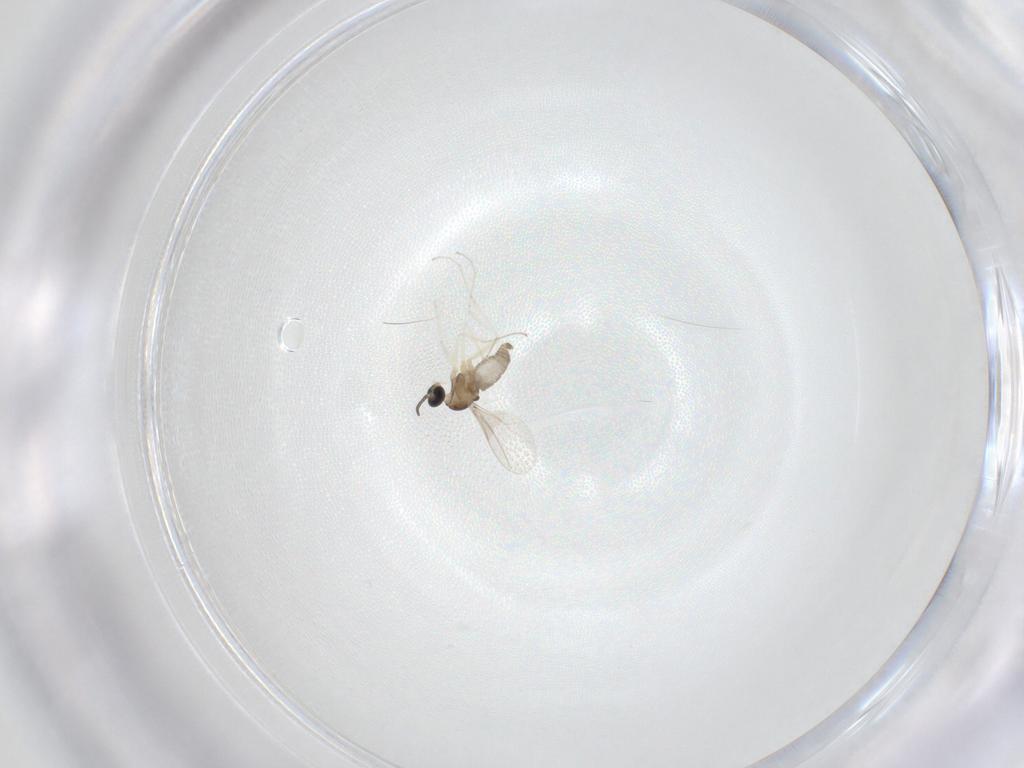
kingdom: Animalia
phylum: Arthropoda
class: Insecta
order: Diptera
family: Cecidomyiidae
